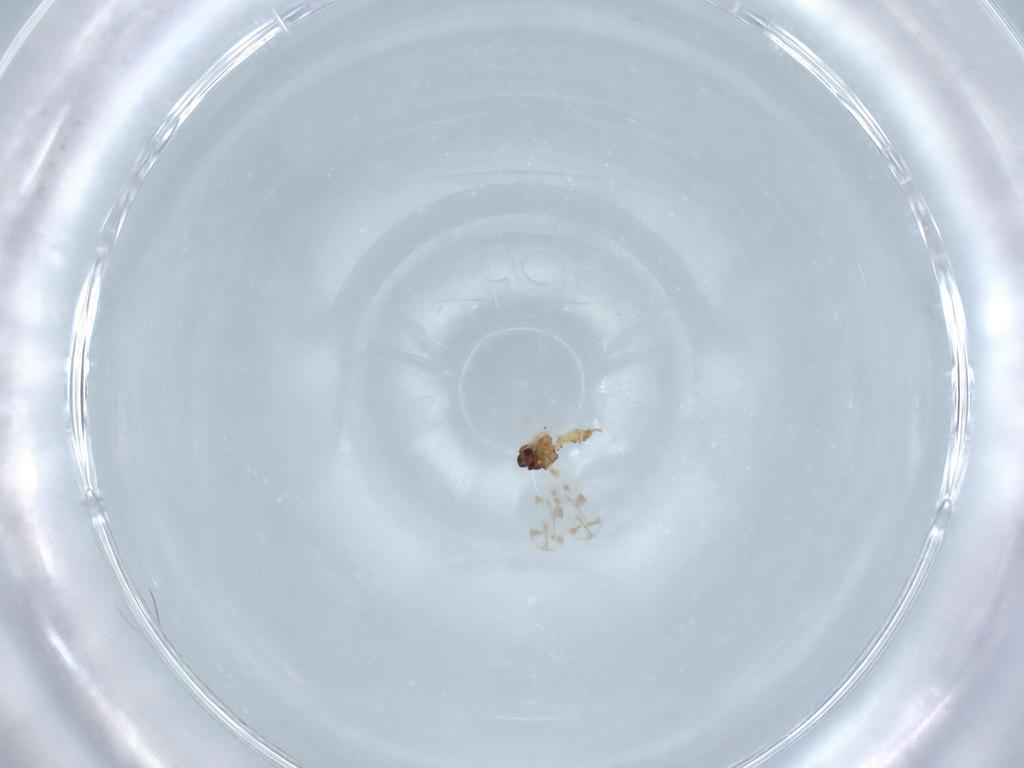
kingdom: Animalia
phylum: Arthropoda
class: Insecta
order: Hemiptera
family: Aleyrodidae
